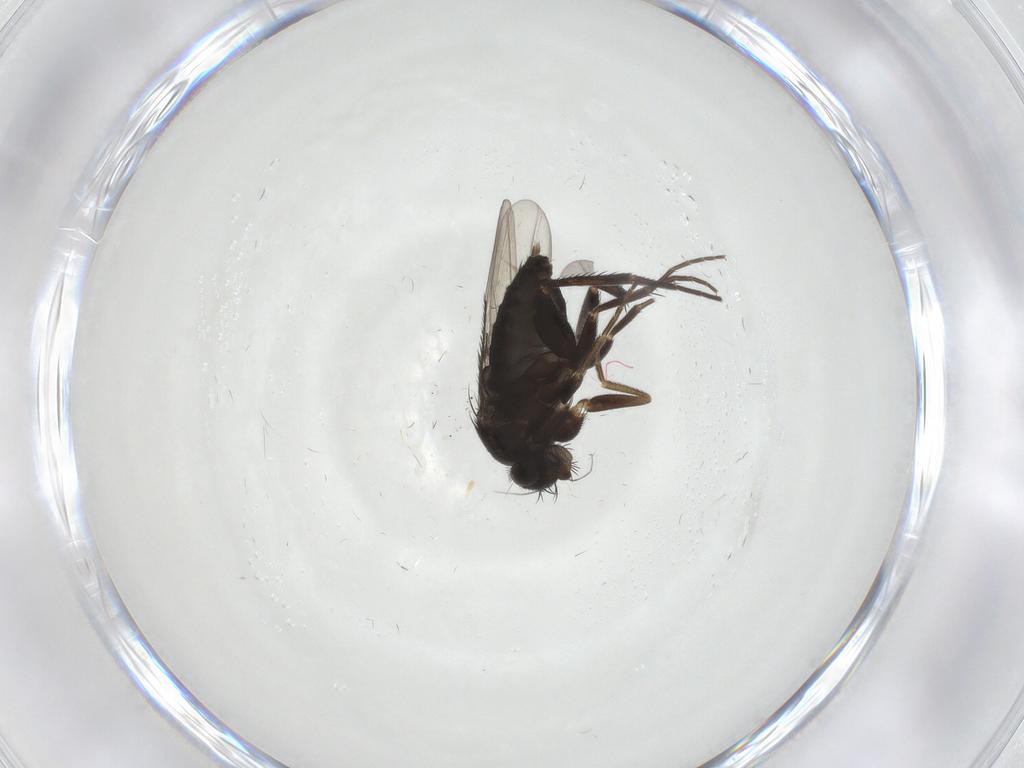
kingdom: Animalia
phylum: Arthropoda
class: Insecta
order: Diptera
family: Phoridae
